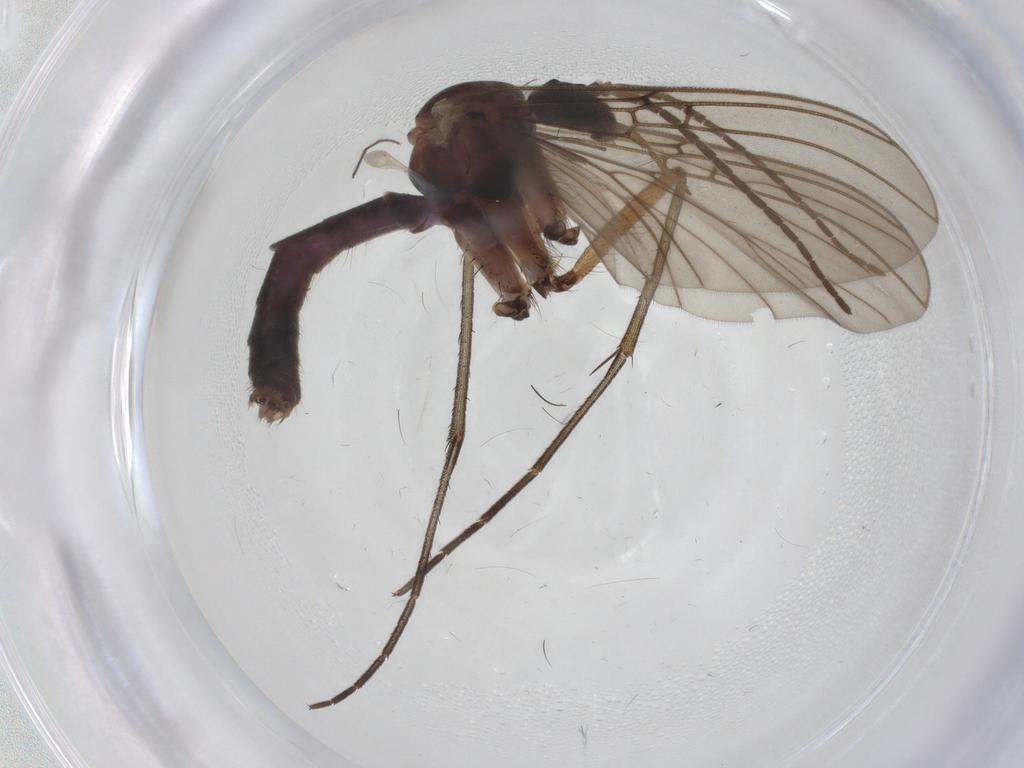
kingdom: Animalia
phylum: Arthropoda
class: Insecta
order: Diptera
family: Mycetophilidae
